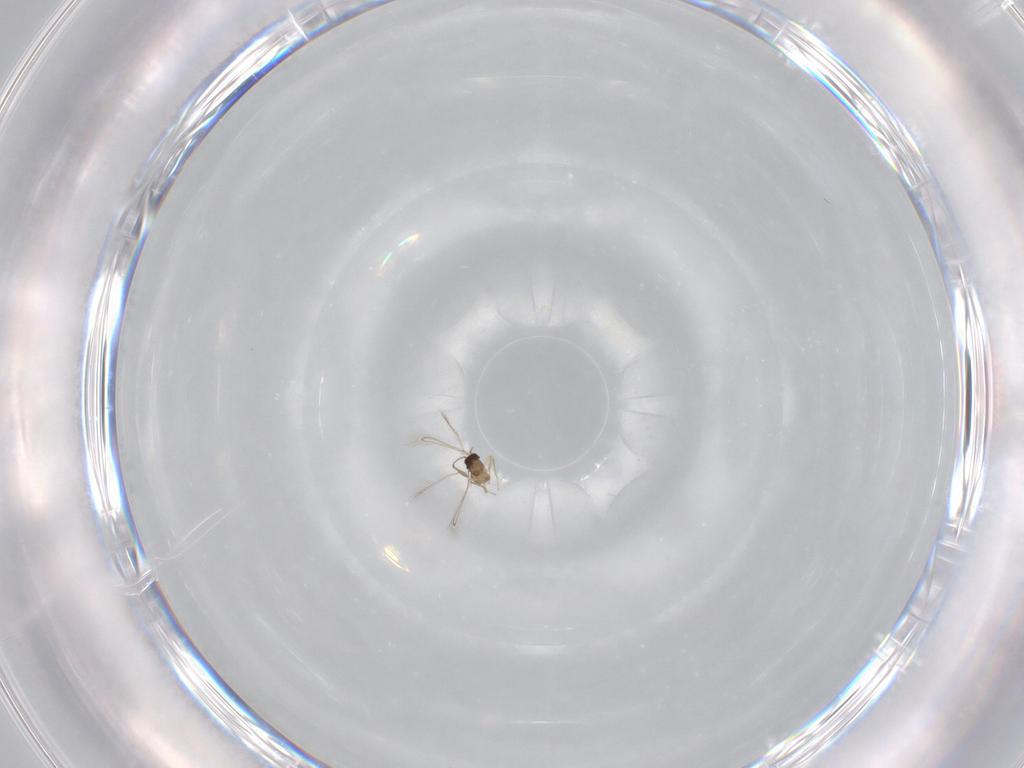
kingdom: Animalia
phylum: Arthropoda
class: Insecta
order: Hymenoptera
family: Mymaridae
